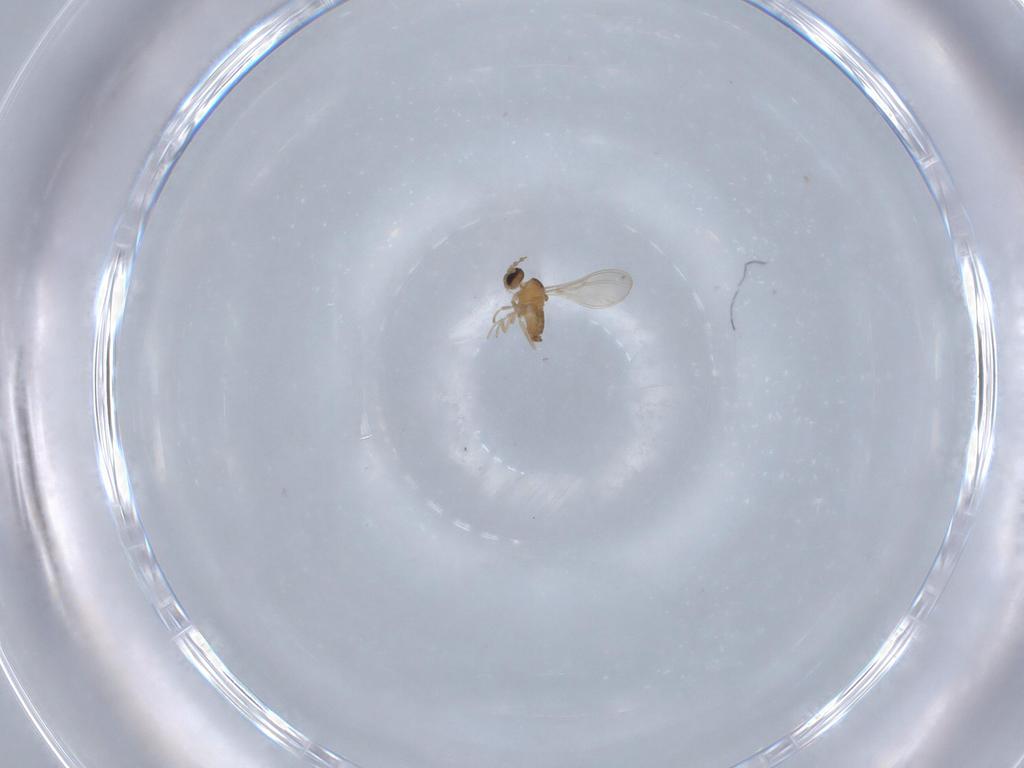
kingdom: Animalia
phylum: Arthropoda
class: Insecta
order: Diptera
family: Cecidomyiidae
